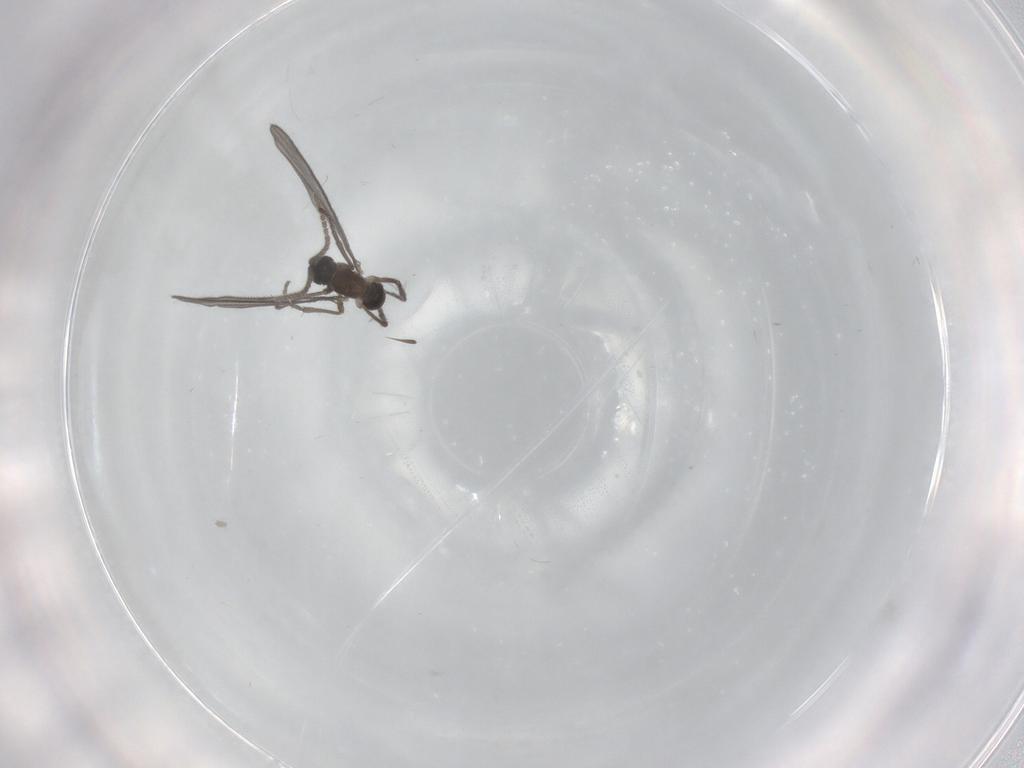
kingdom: Animalia
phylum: Arthropoda
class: Insecta
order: Diptera
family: Sciaridae
